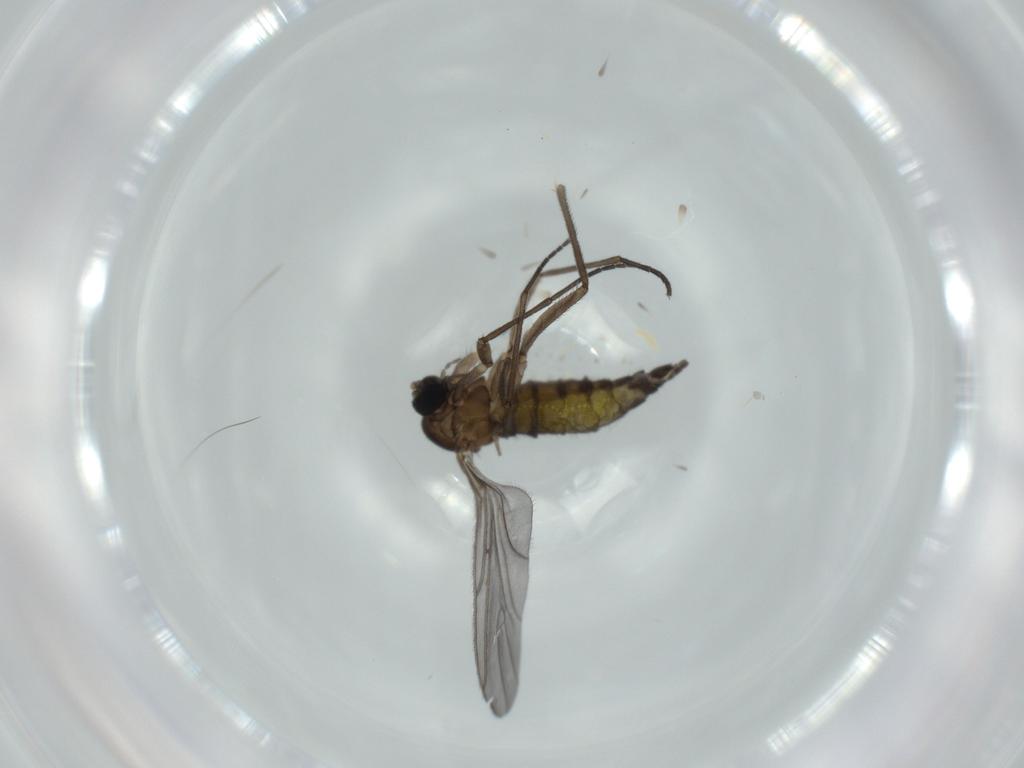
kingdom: Animalia
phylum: Arthropoda
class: Insecta
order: Diptera
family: Sciaridae
